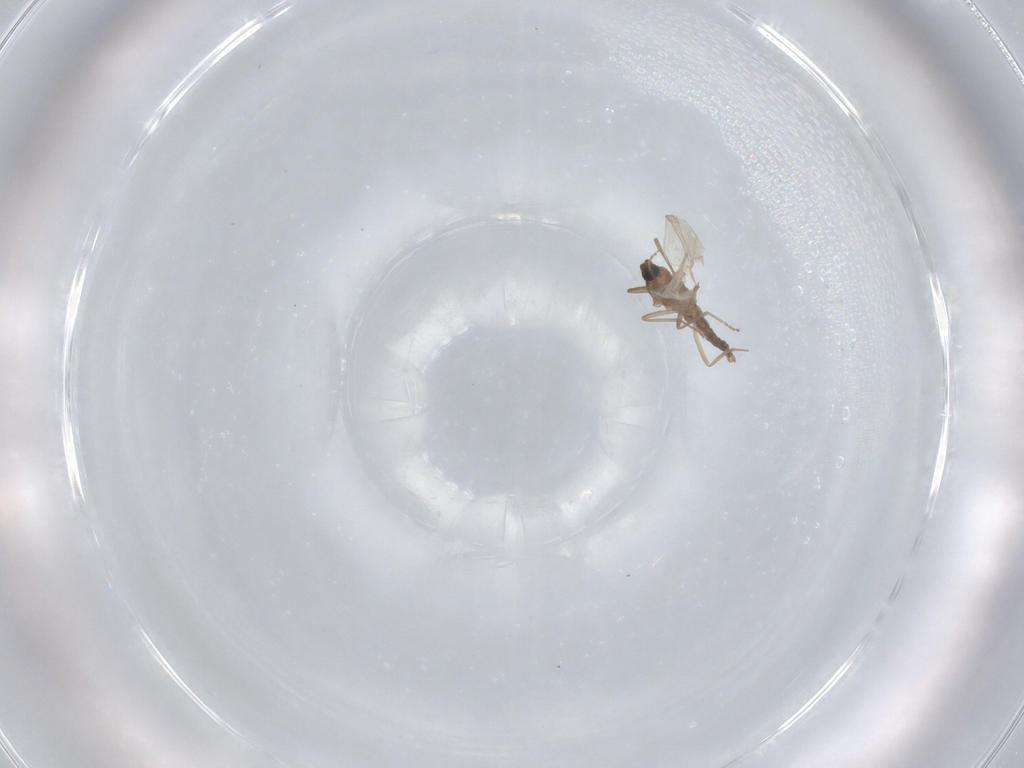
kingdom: Animalia
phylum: Arthropoda
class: Insecta
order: Diptera
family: Cecidomyiidae
